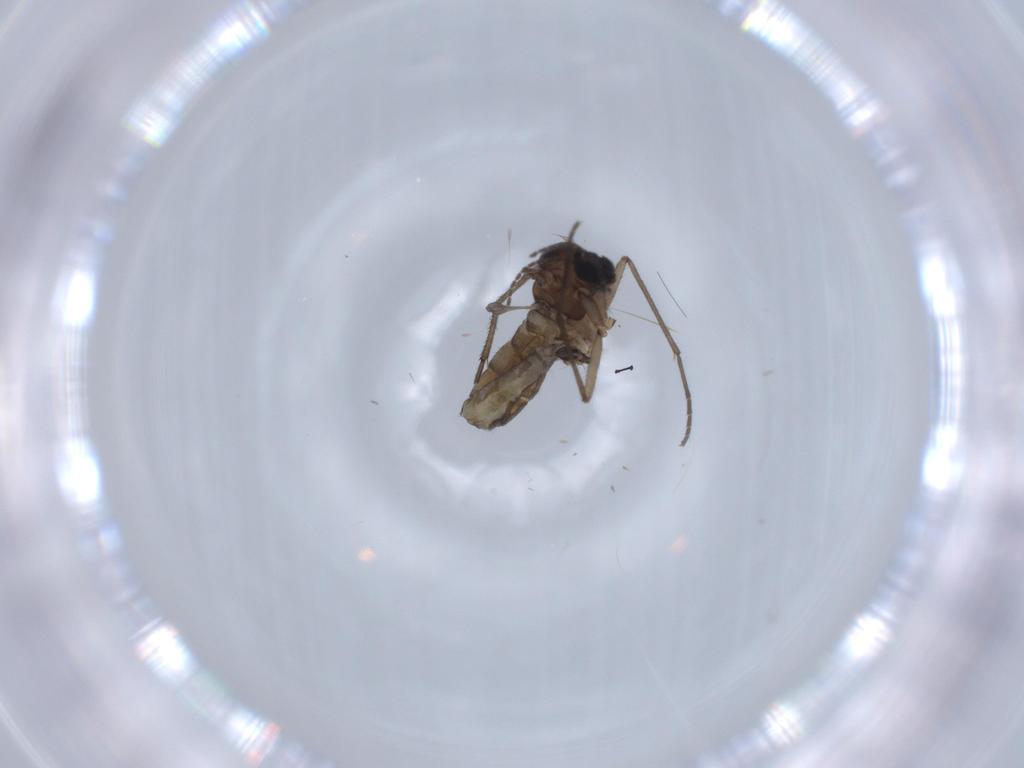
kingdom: Animalia
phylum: Arthropoda
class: Insecta
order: Diptera
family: Sciaridae
